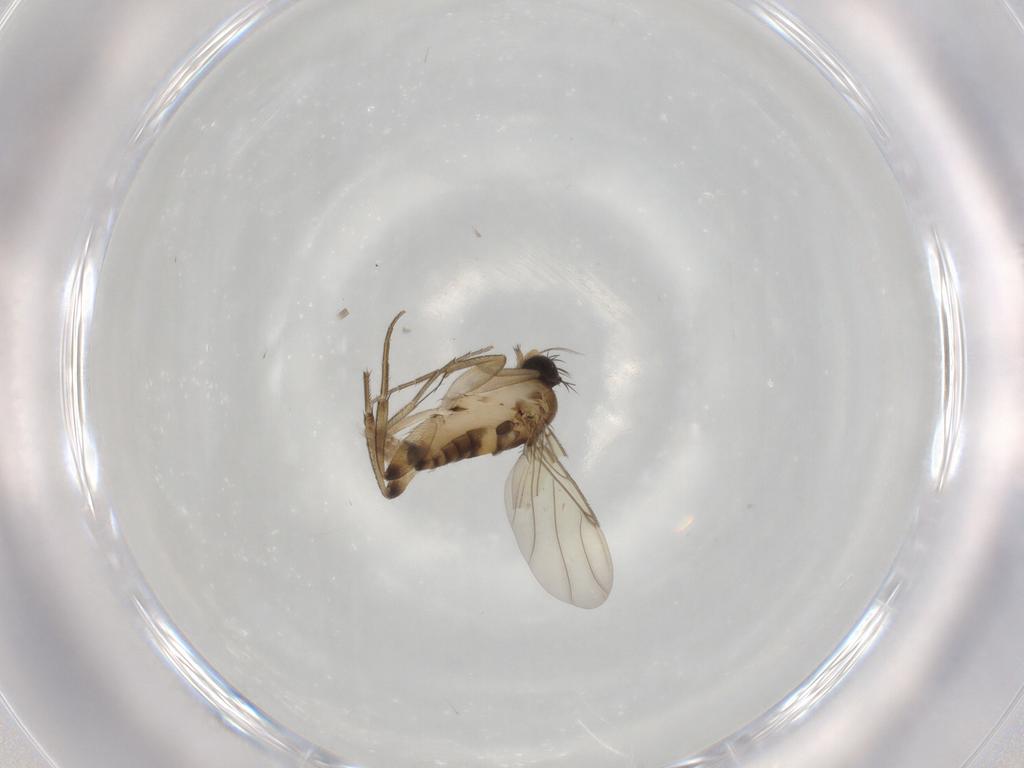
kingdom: Animalia
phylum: Arthropoda
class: Insecta
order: Diptera
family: Phoridae
